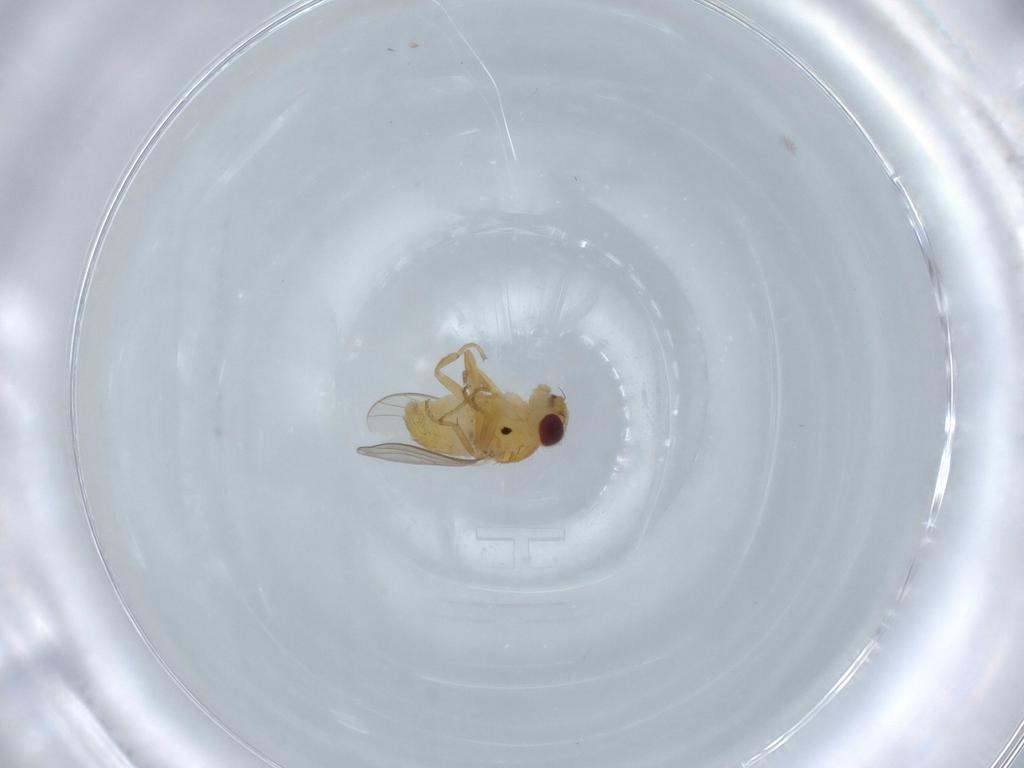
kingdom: Animalia
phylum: Arthropoda
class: Insecta
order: Diptera
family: Chloropidae
